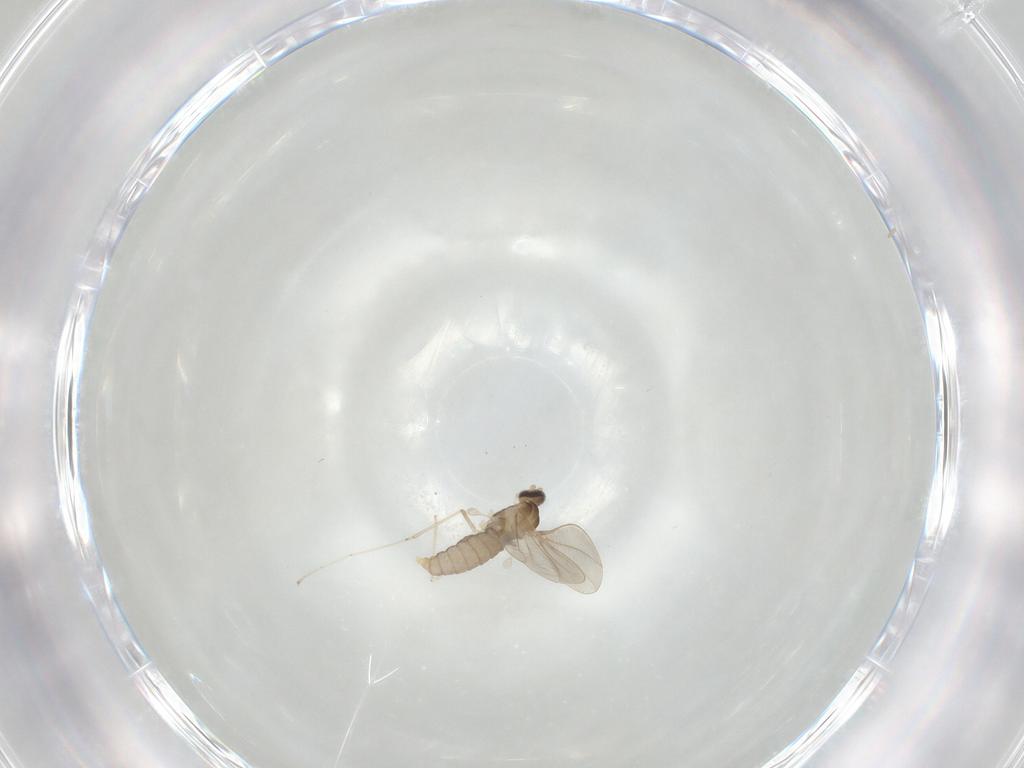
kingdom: Animalia
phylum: Arthropoda
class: Insecta
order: Diptera
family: Cecidomyiidae
